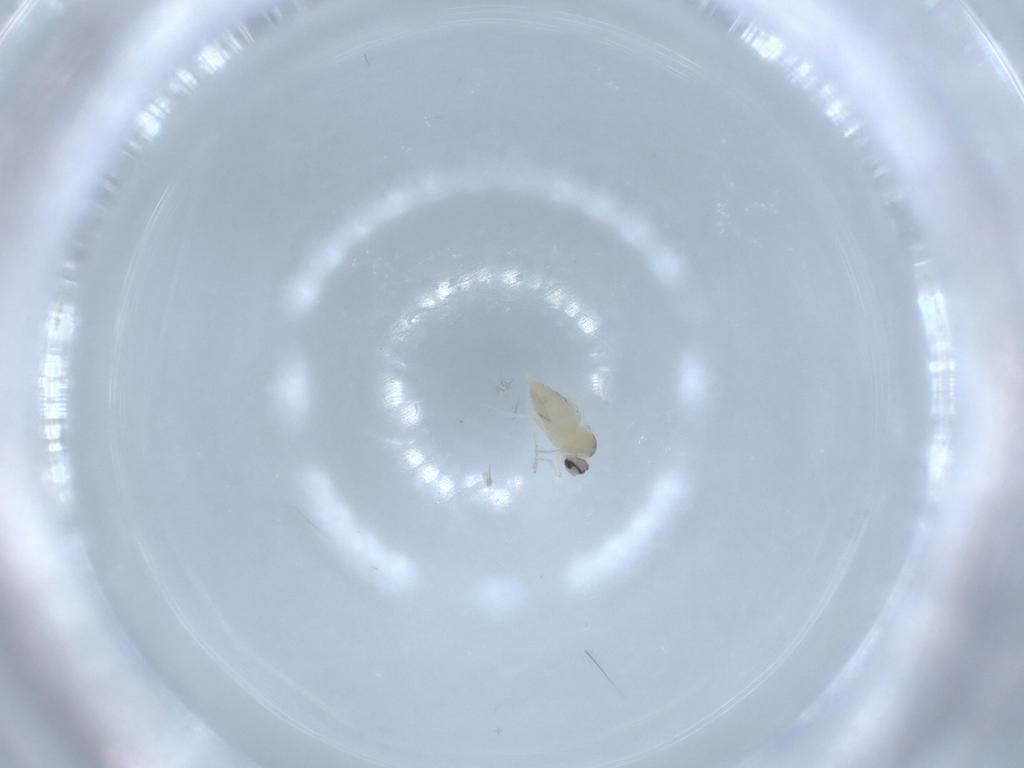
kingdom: Animalia
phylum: Arthropoda
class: Insecta
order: Diptera
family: Cecidomyiidae
